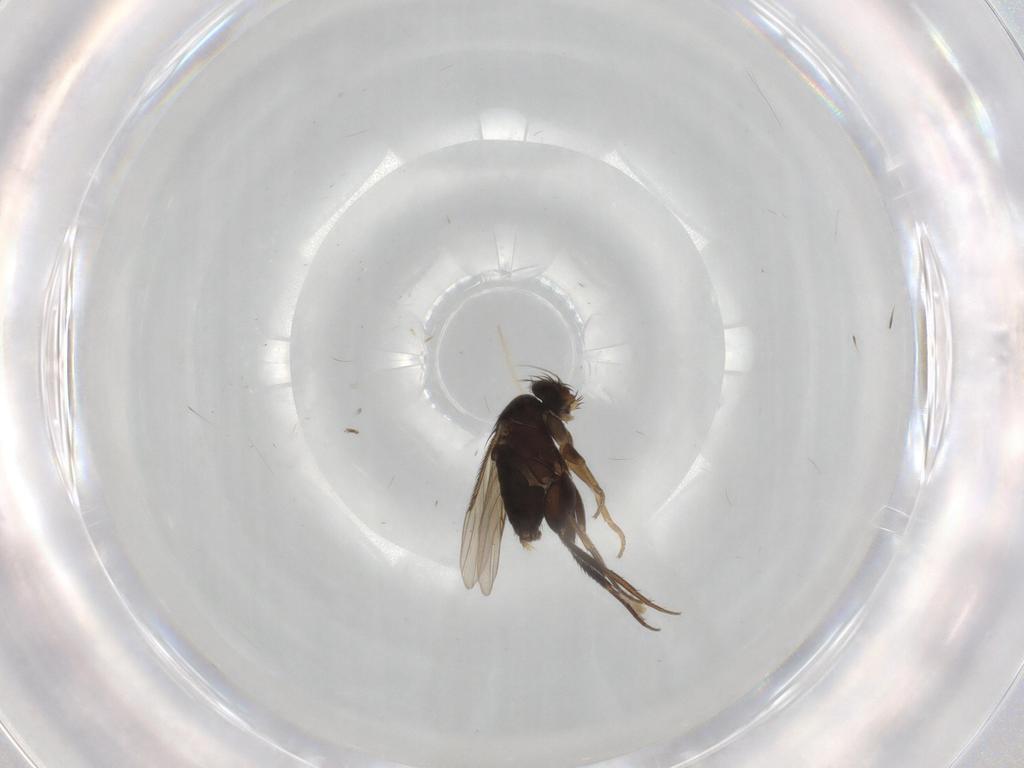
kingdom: Animalia
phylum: Arthropoda
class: Insecta
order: Diptera
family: Phoridae
